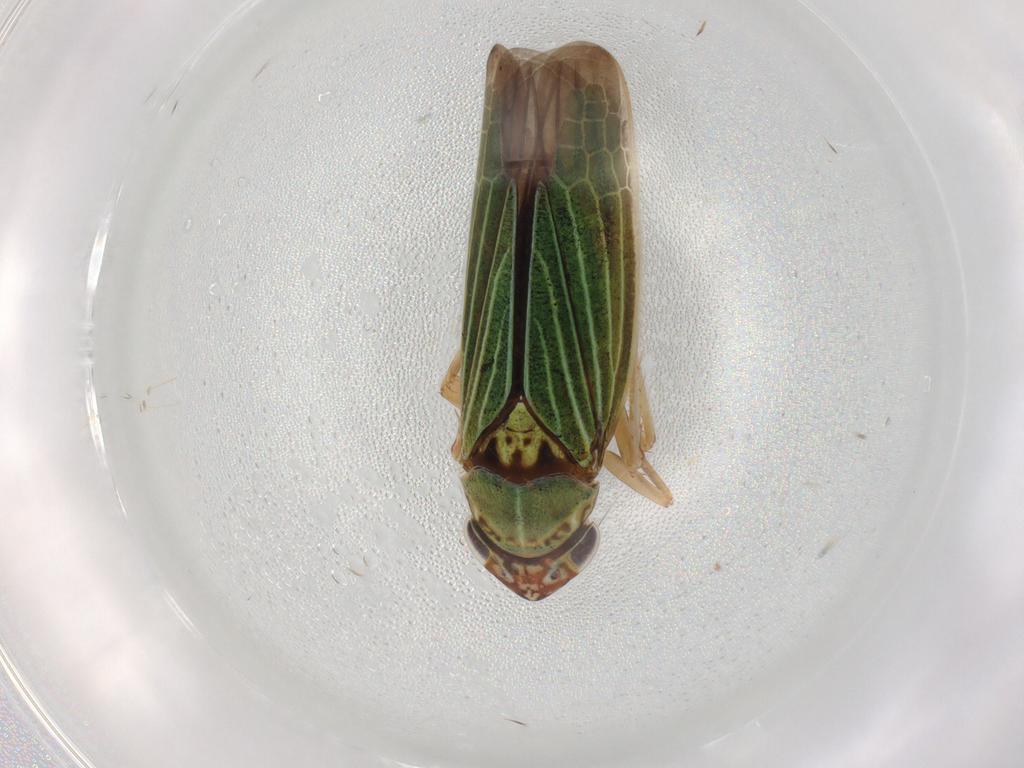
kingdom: Animalia
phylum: Arthropoda
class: Insecta
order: Hemiptera
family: Cicadellidae
